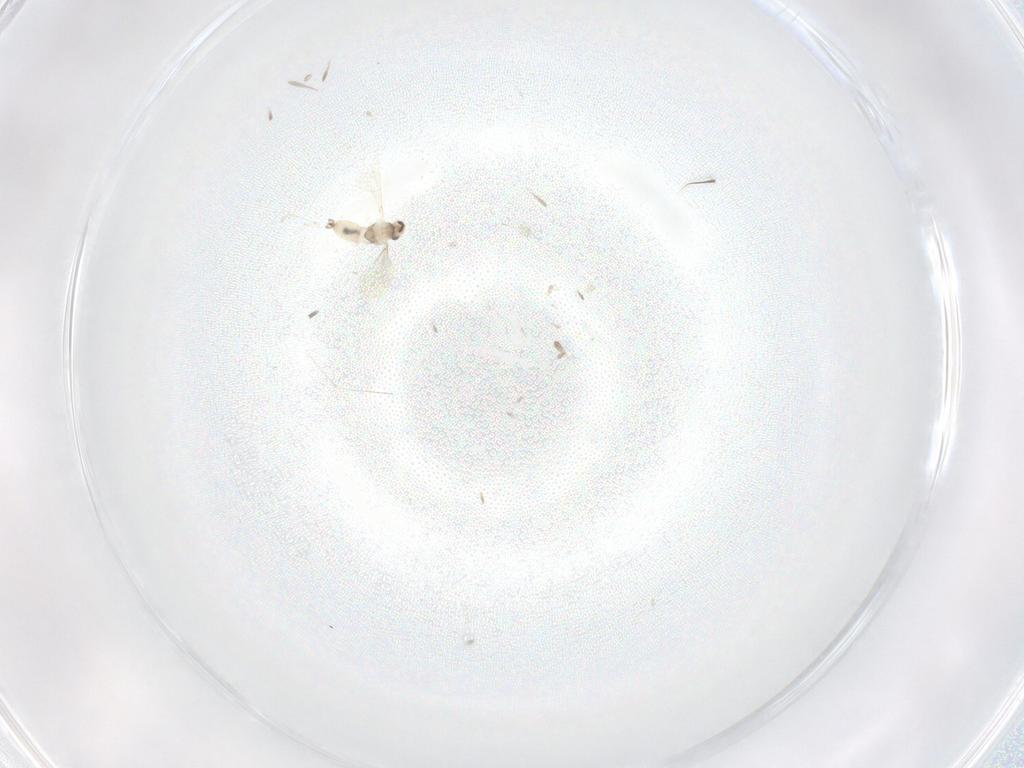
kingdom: Animalia
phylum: Arthropoda
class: Insecta
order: Diptera
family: Cecidomyiidae
